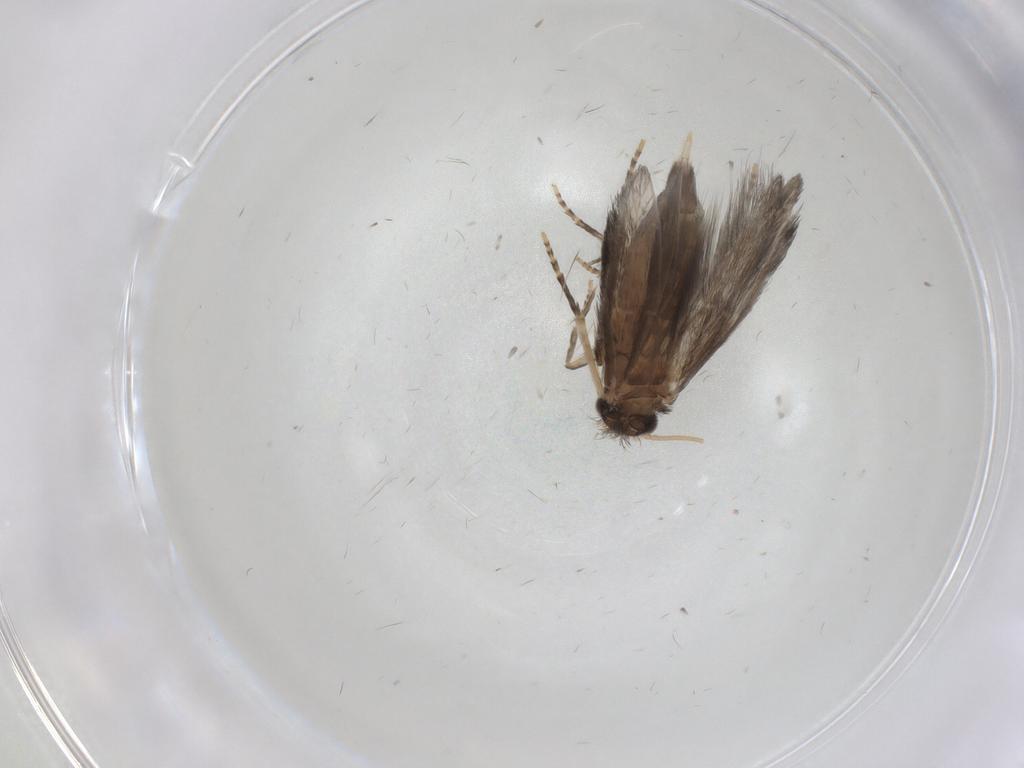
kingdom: Animalia
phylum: Arthropoda
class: Insecta
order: Trichoptera
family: Hydroptilidae
